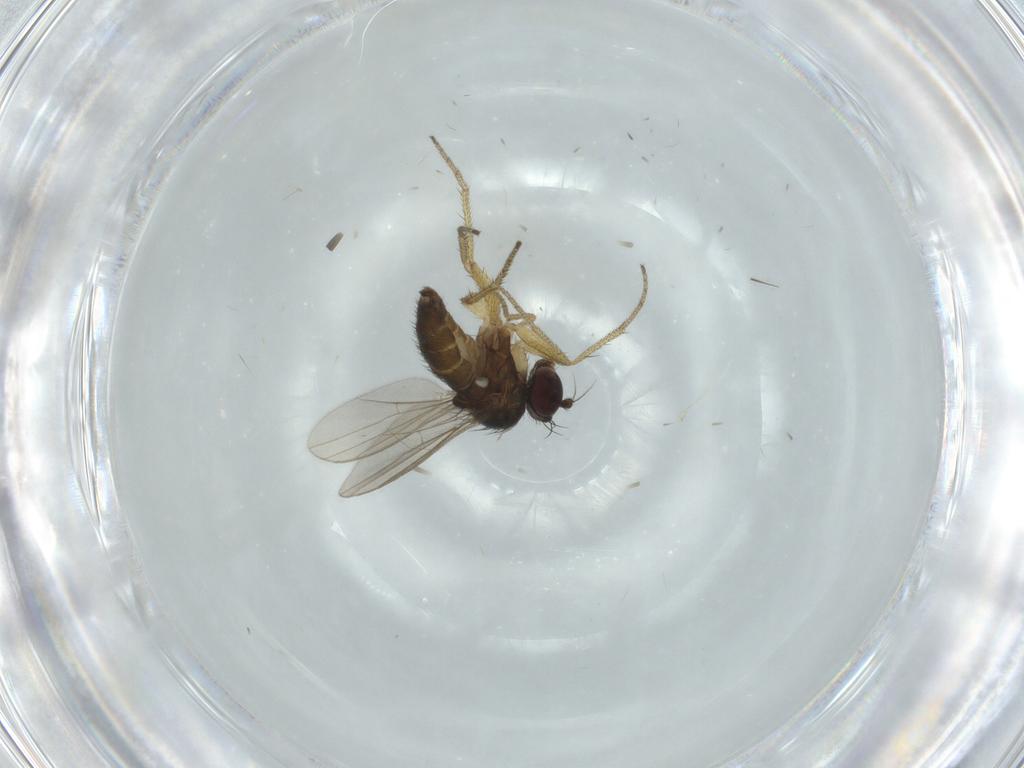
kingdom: Animalia
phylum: Arthropoda
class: Insecta
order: Diptera
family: Dolichopodidae
